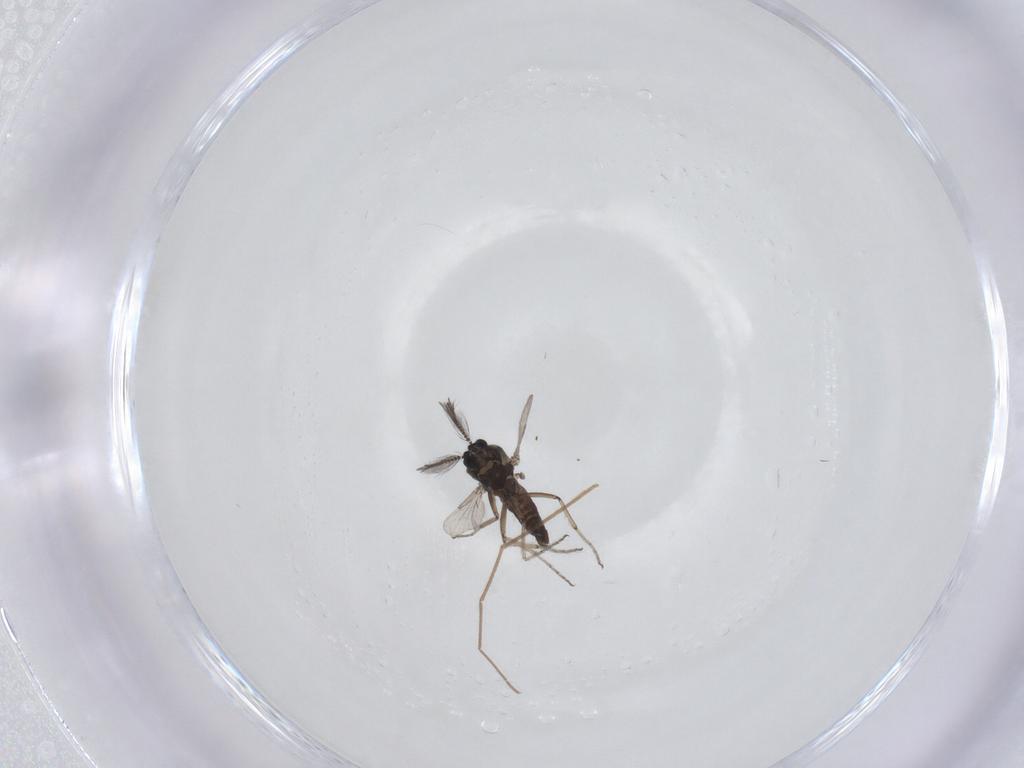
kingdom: Animalia
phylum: Arthropoda
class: Insecta
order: Diptera
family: Ceratopogonidae
